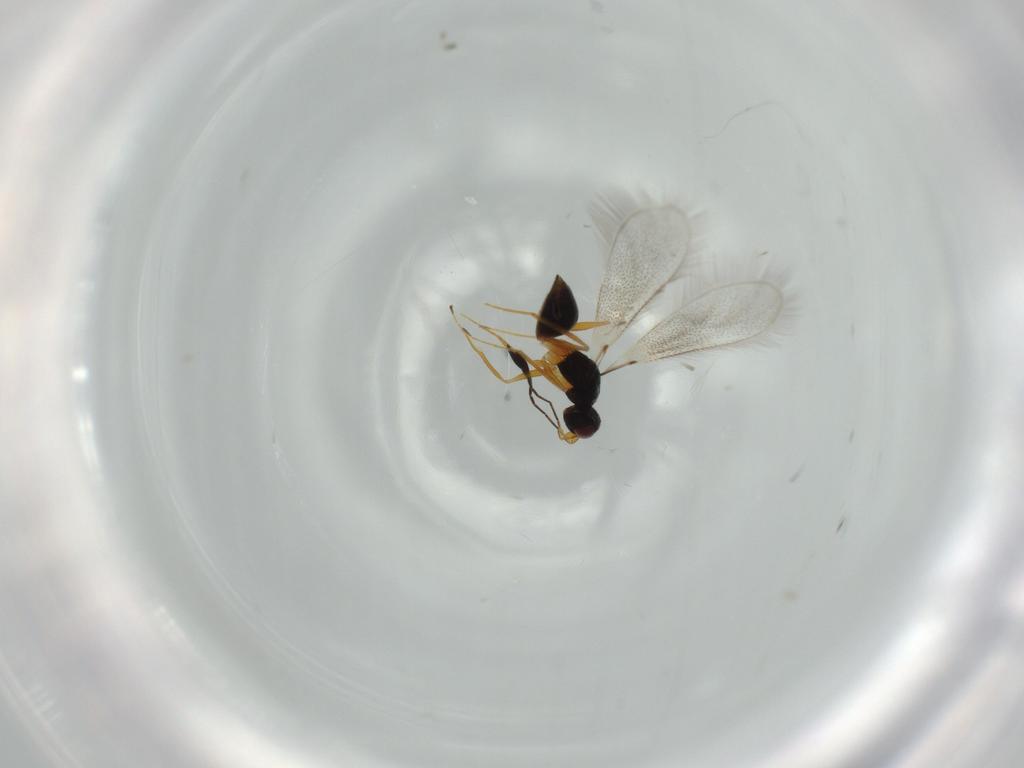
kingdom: Animalia
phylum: Arthropoda
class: Insecta
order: Hymenoptera
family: Mymaridae
